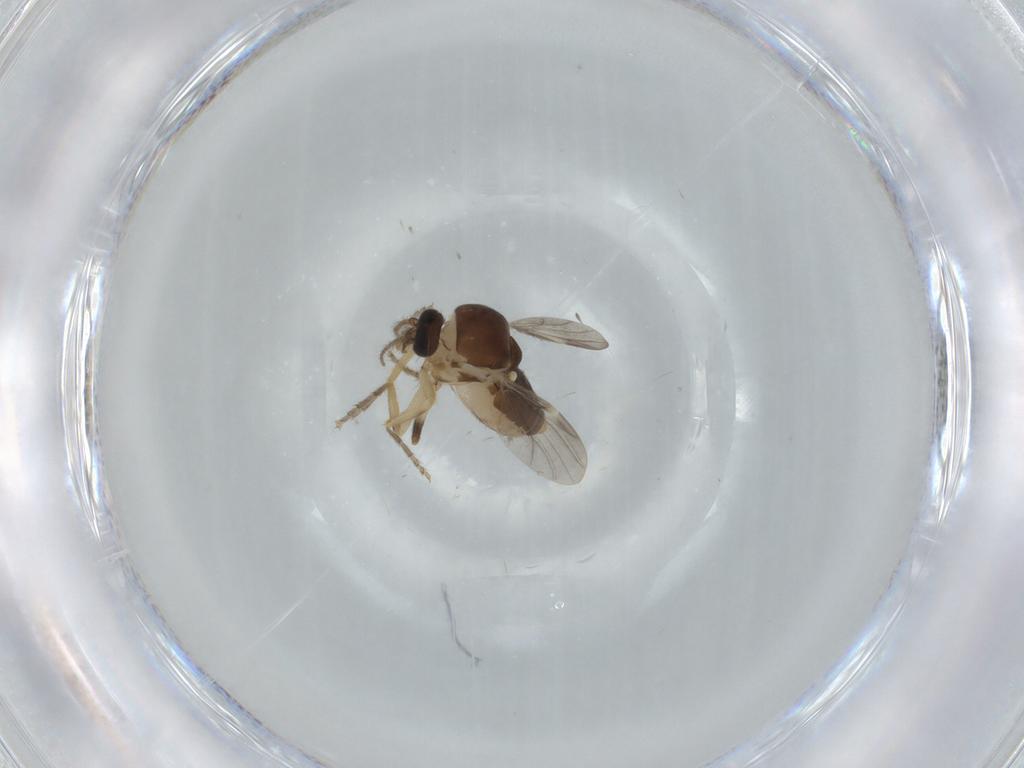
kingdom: Animalia
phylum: Arthropoda
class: Insecta
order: Diptera
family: Ceratopogonidae
